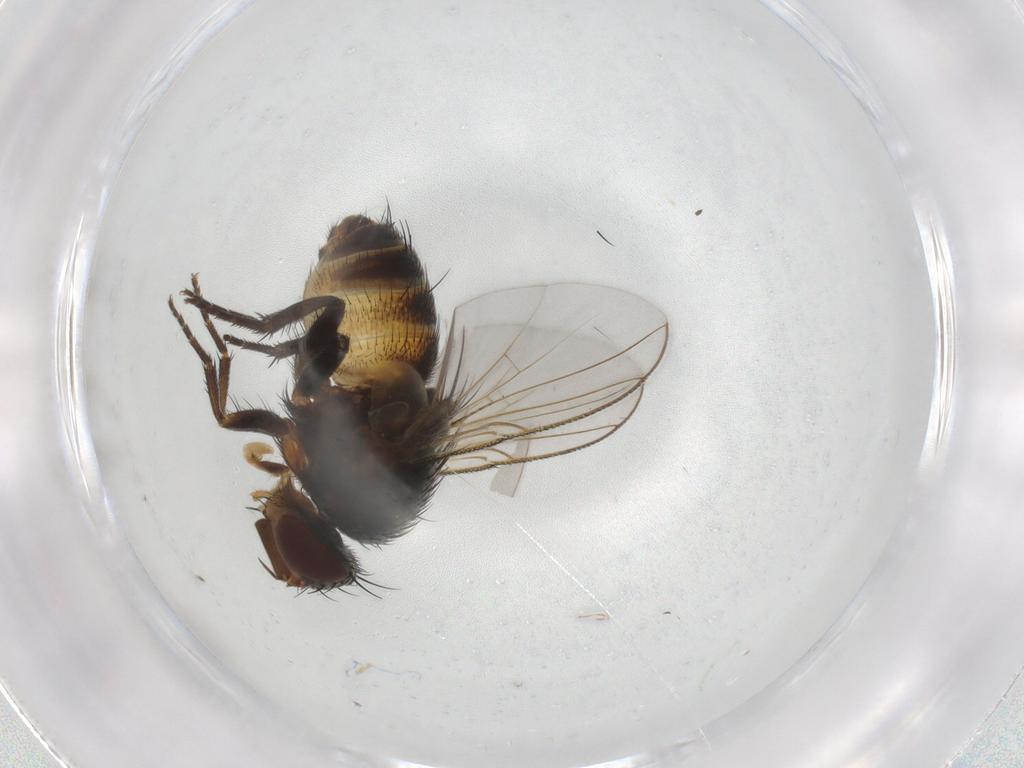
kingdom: Animalia
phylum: Arthropoda
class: Insecta
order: Diptera
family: Tachinidae
